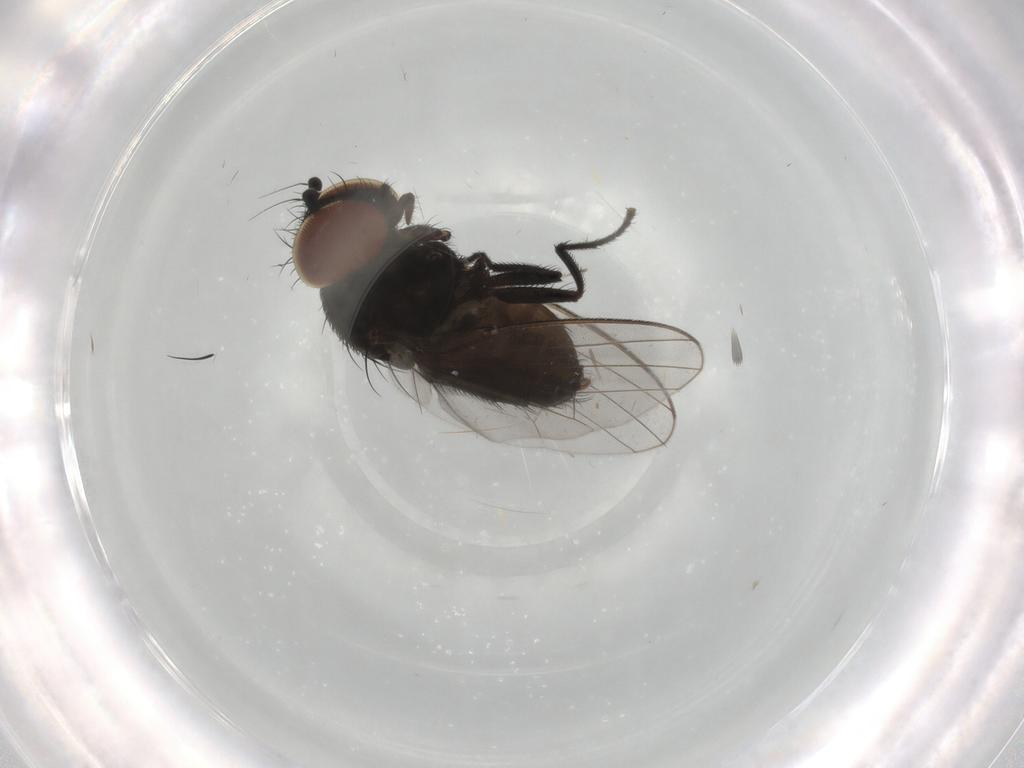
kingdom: Animalia
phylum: Arthropoda
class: Insecta
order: Diptera
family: Milichiidae
